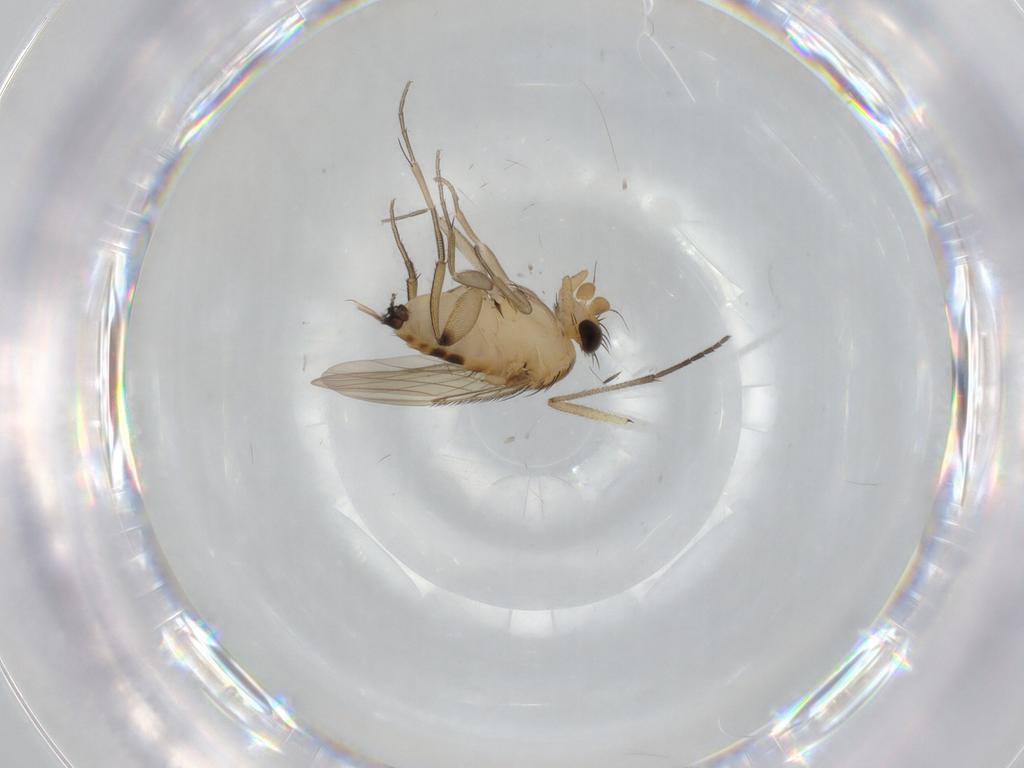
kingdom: Animalia
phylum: Arthropoda
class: Insecta
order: Diptera
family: Phoridae
